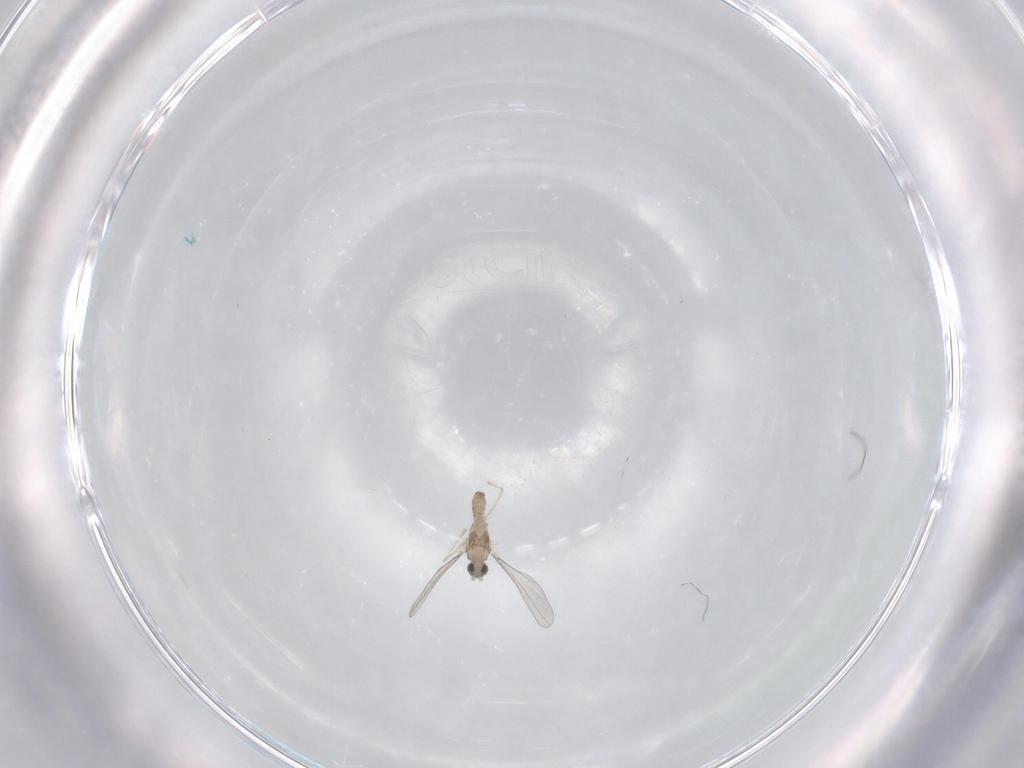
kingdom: Animalia
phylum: Arthropoda
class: Insecta
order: Diptera
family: Cecidomyiidae
